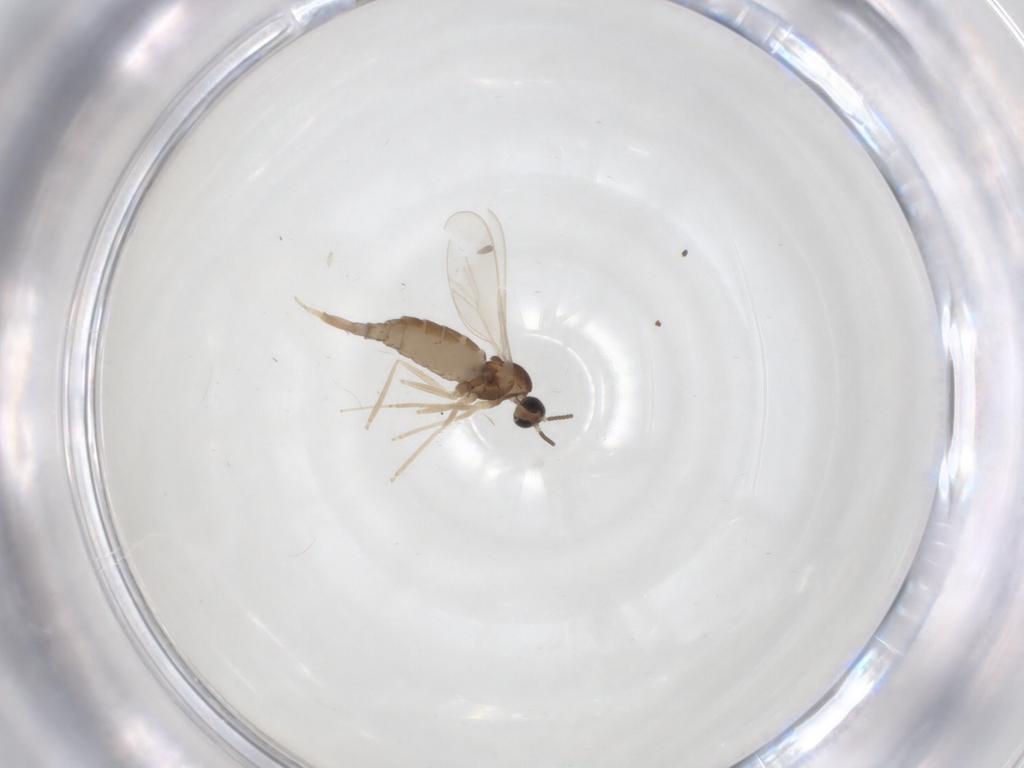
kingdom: Animalia
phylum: Arthropoda
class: Insecta
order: Diptera
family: Cecidomyiidae
